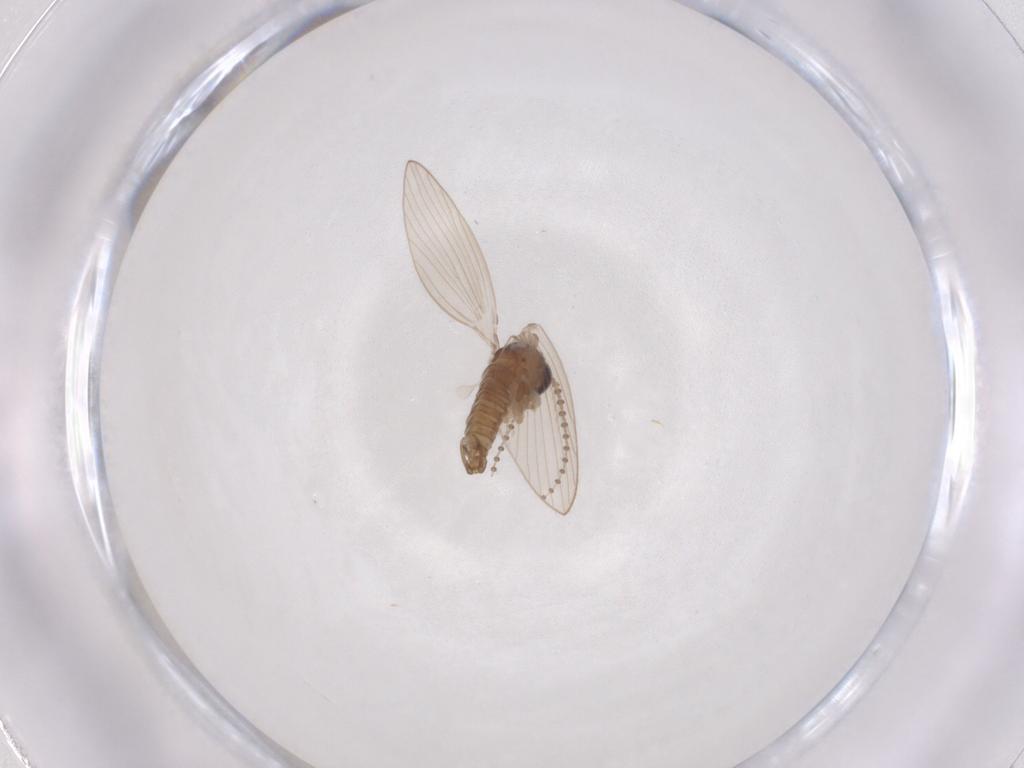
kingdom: Animalia
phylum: Arthropoda
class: Insecta
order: Diptera
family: Psychodidae
